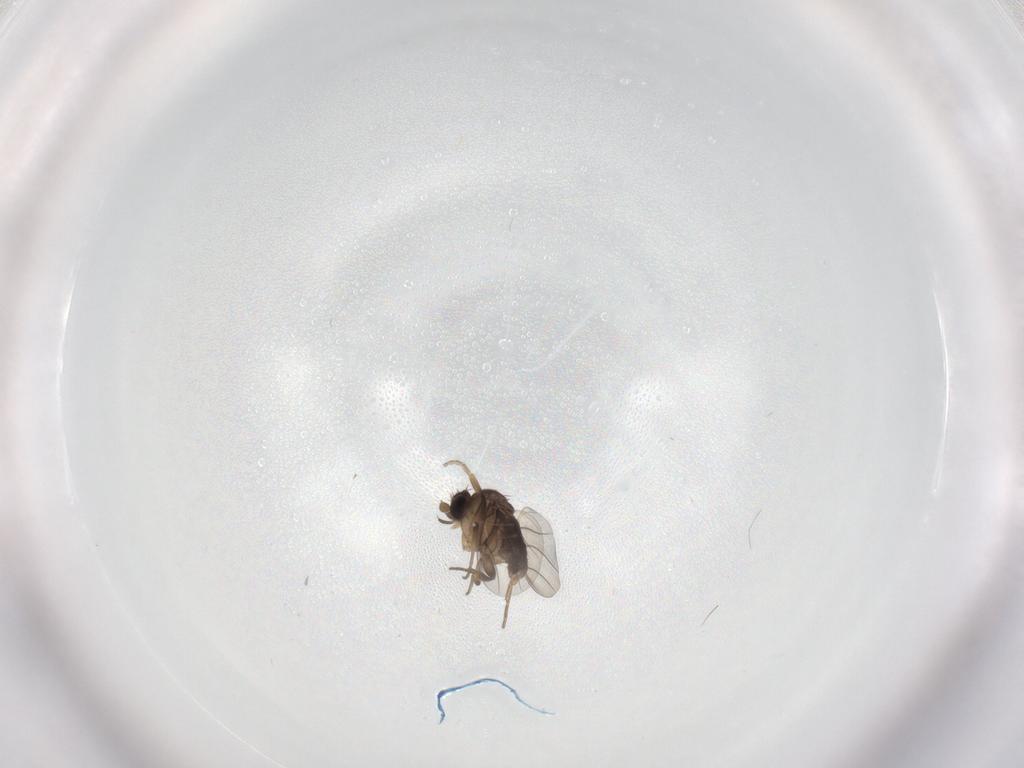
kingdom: Animalia
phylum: Arthropoda
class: Insecta
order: Diptera
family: Phoridae
